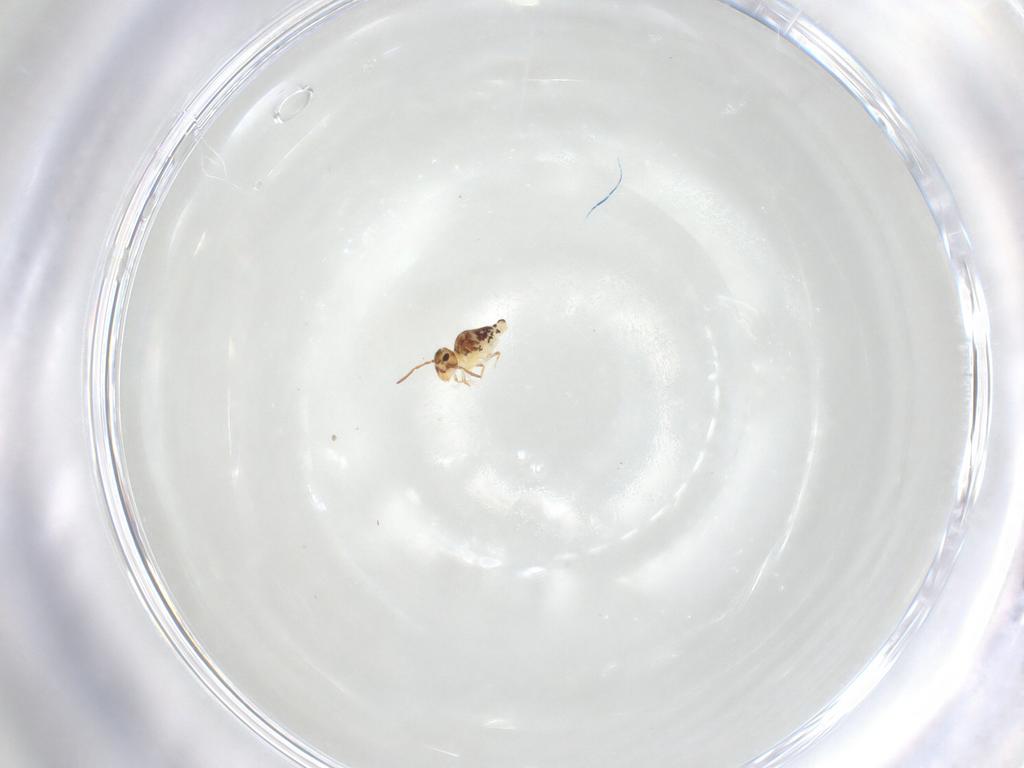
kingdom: Animalia
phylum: Arthropoda
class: Collembola
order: Symphypleona
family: Bourletiellidae
